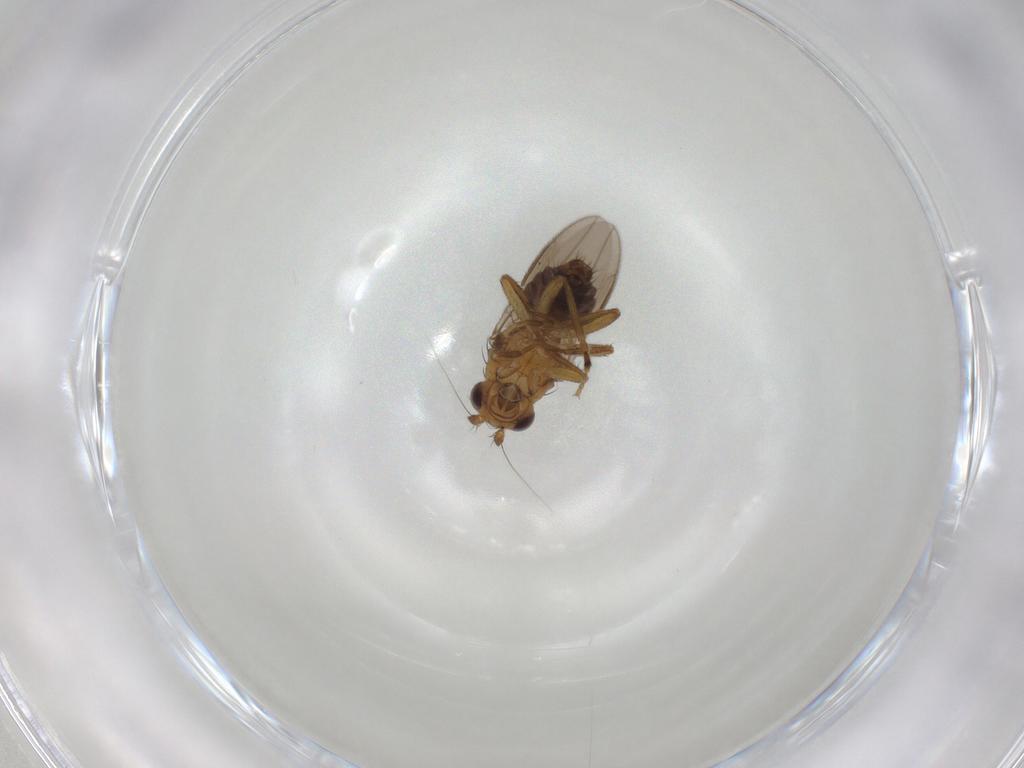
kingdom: Animalia
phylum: Arthropoda
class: Insecta
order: Diptera
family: Sphaeroceridae
